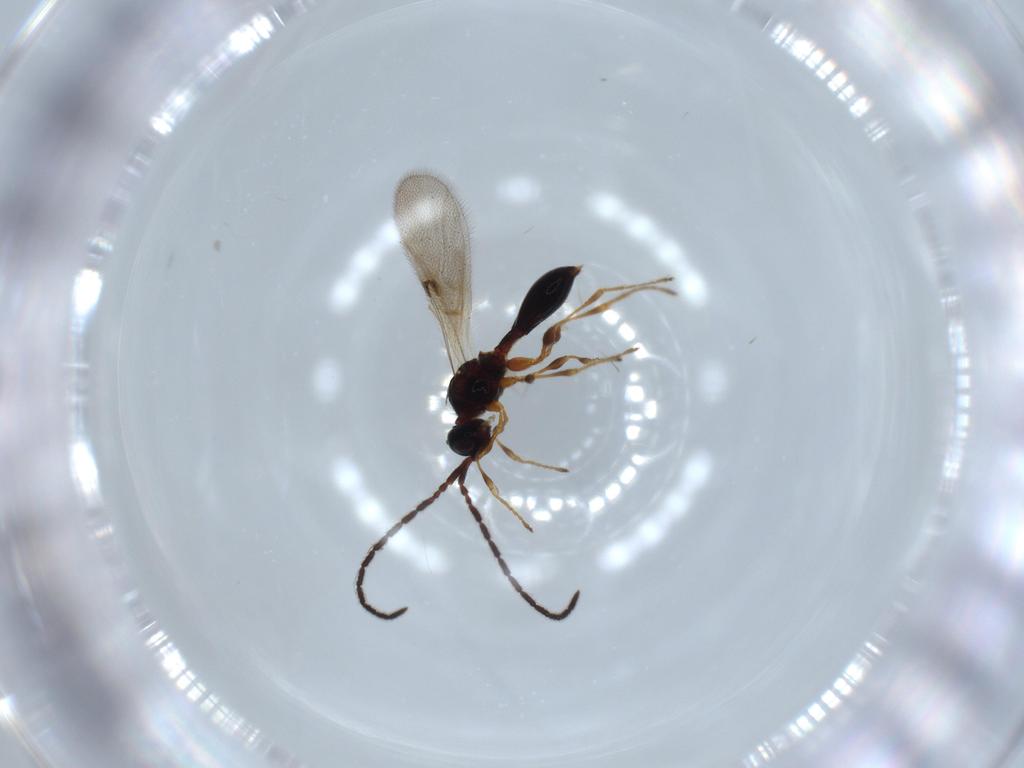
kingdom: Animalia
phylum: Arthropoda
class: Insecta
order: Hymenoptera
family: Diapriidae
